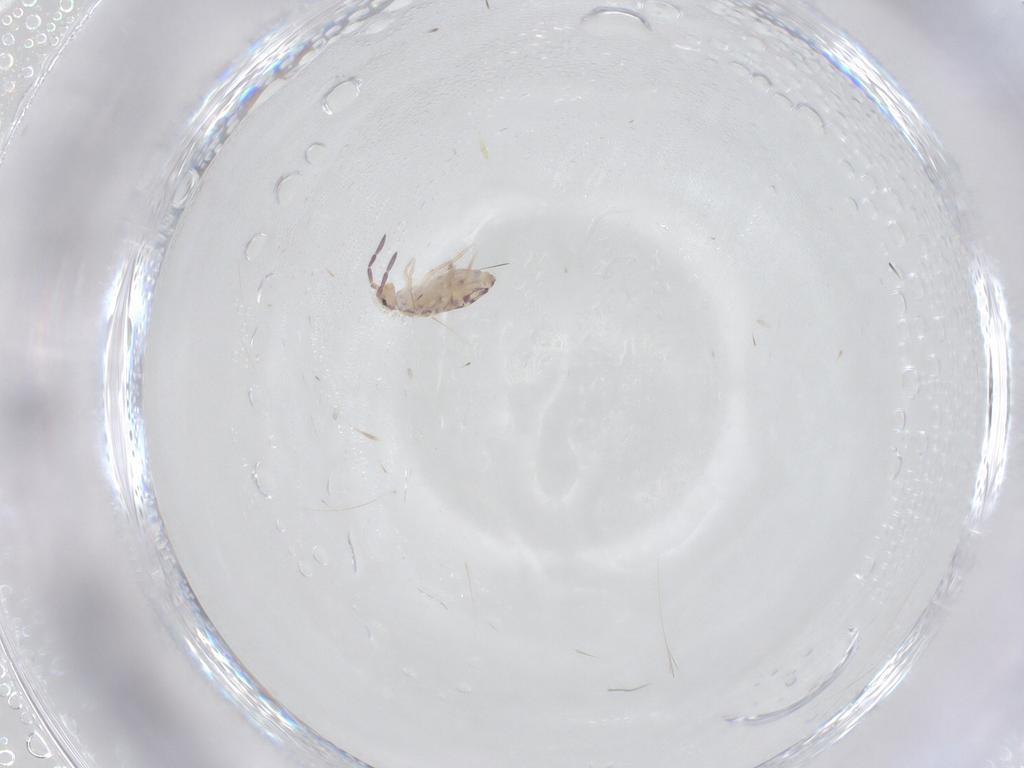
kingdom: Animalia
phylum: Arthropoda
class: Collembola
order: Entomobryomorpha
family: Entomobryidae
